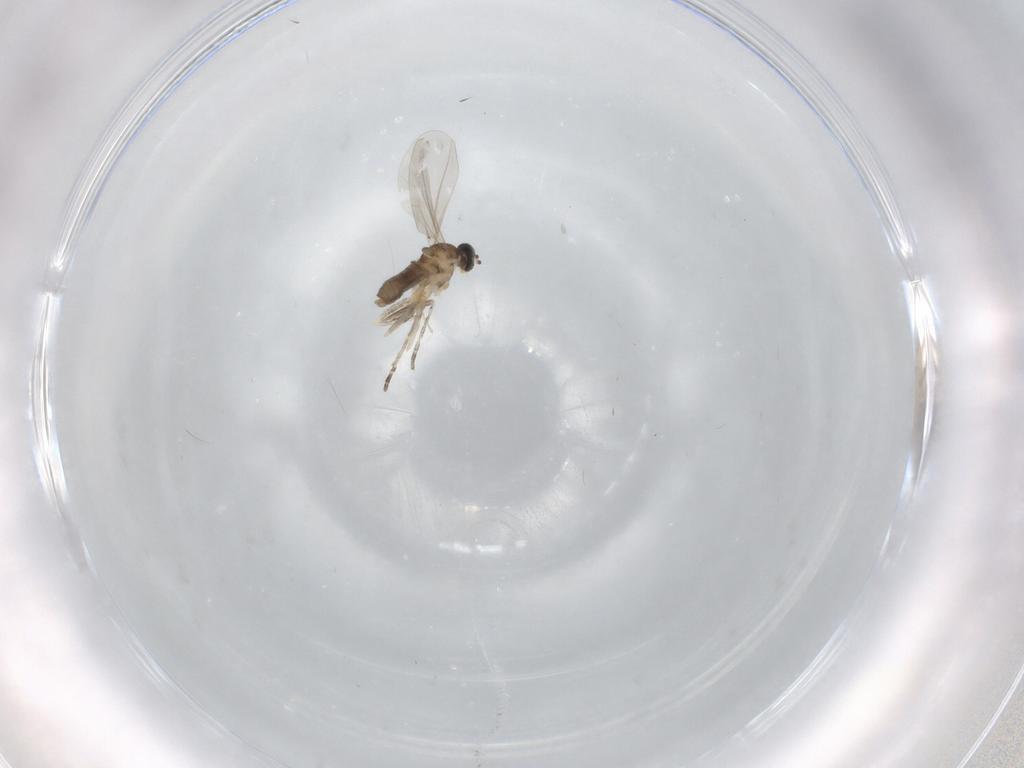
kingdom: Animalia
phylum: Arthropoda
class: Insecta
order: Diptera
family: Cecidomyiidae
